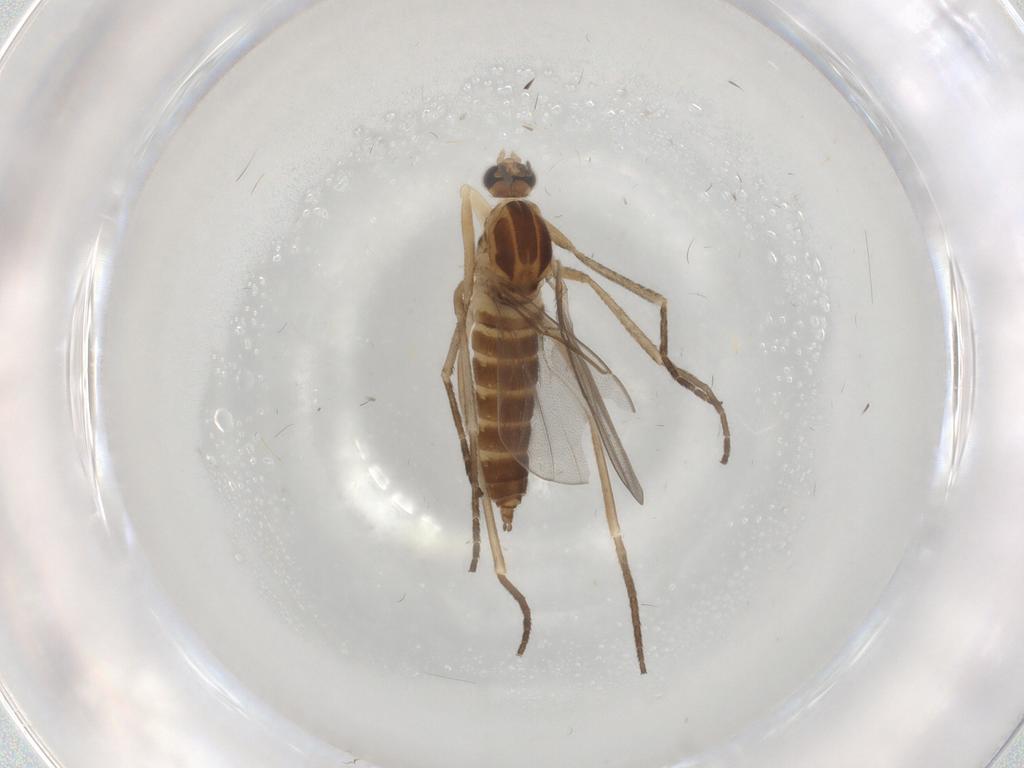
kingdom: Animalia
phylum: Arthropoda
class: Insecta
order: Diptera
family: Cecidomyiidae
